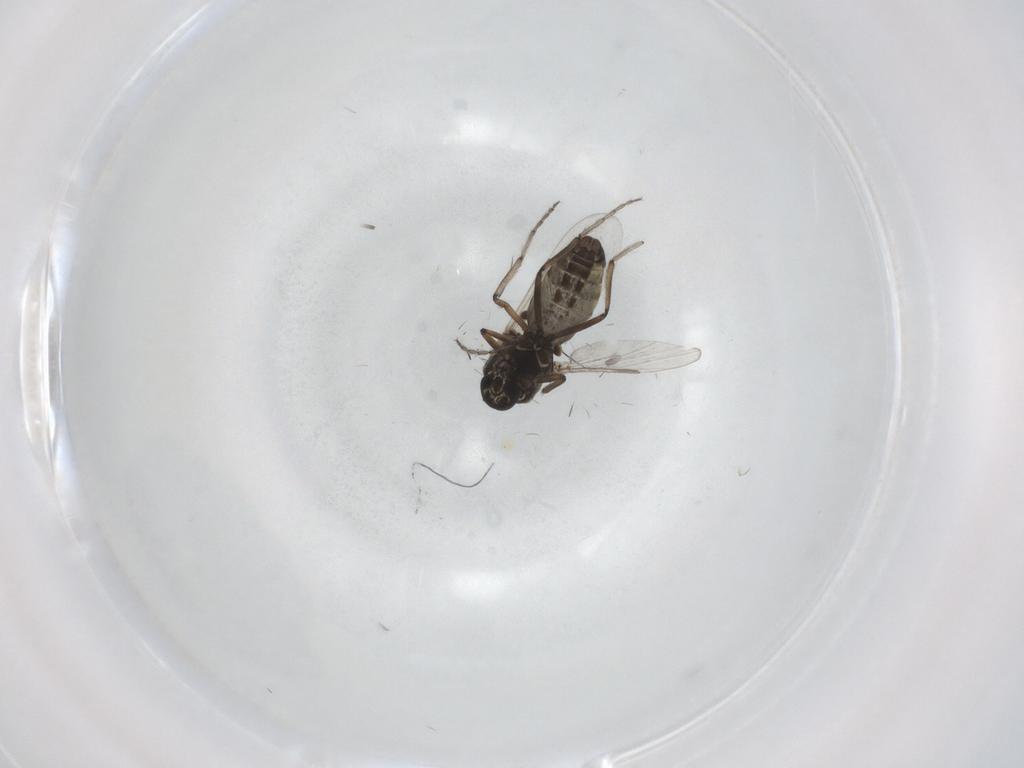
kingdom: Animalia
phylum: Arthropoda
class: Insecta
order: Diptera
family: Ceratopogonidae
